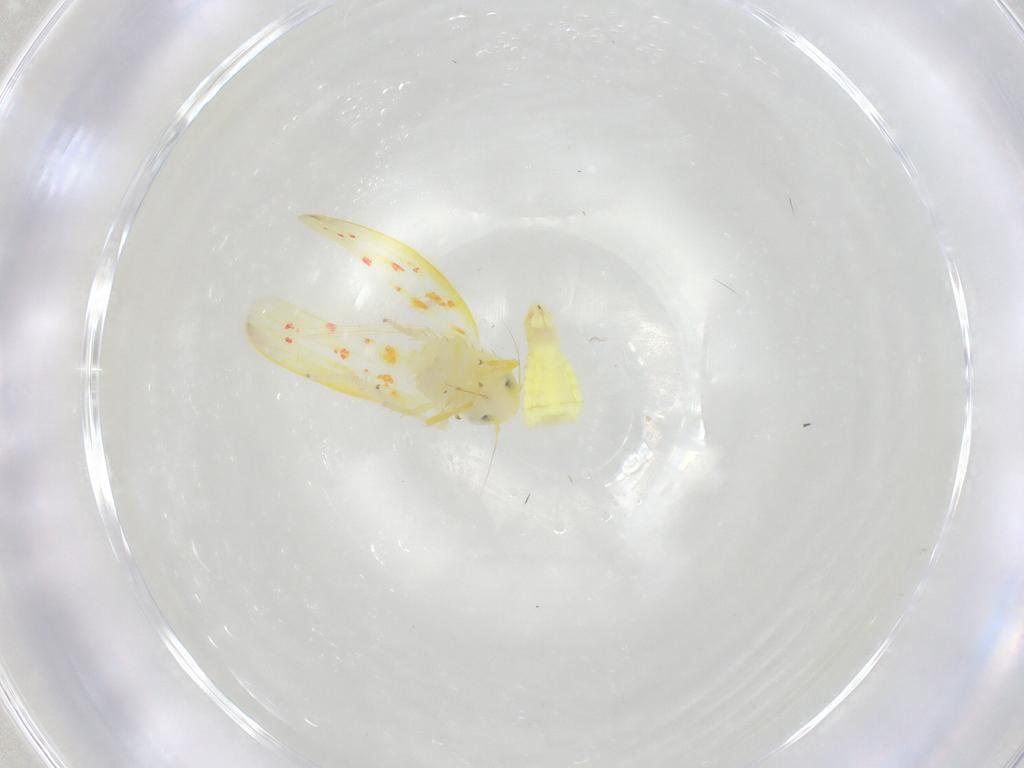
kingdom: Animalia
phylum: Arthropoda
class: Insecta
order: Hemiptera
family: Cicadellidae
